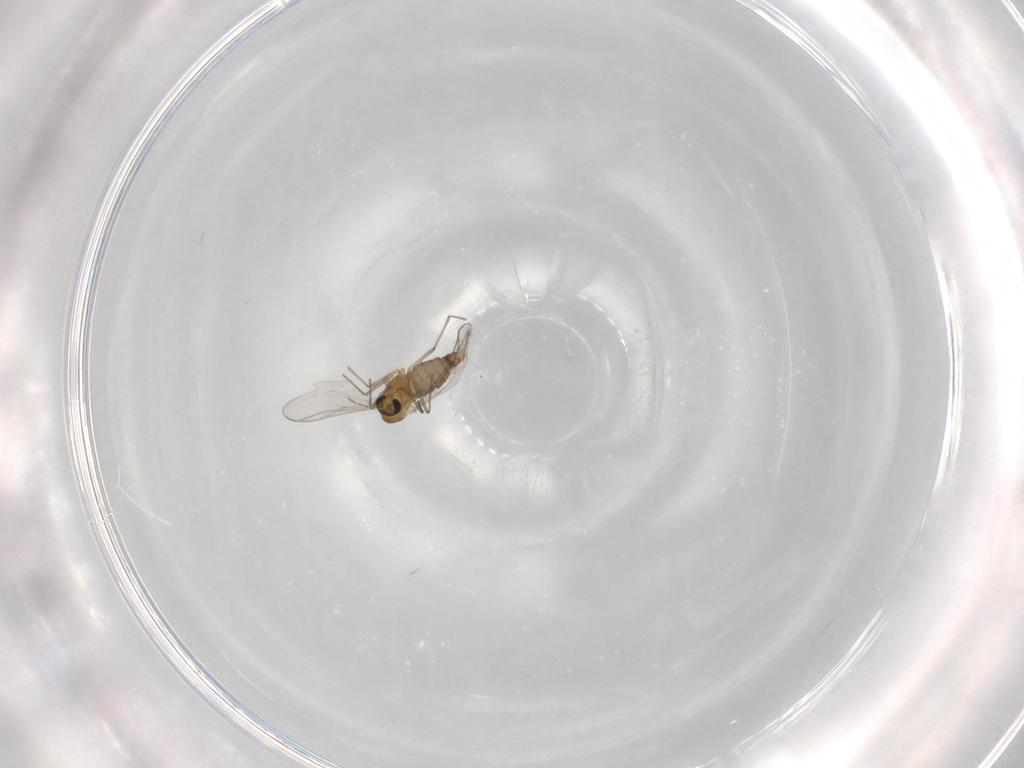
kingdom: Animalia
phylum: Arthropoda
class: Insecta
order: Diptera
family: Chironomidae
